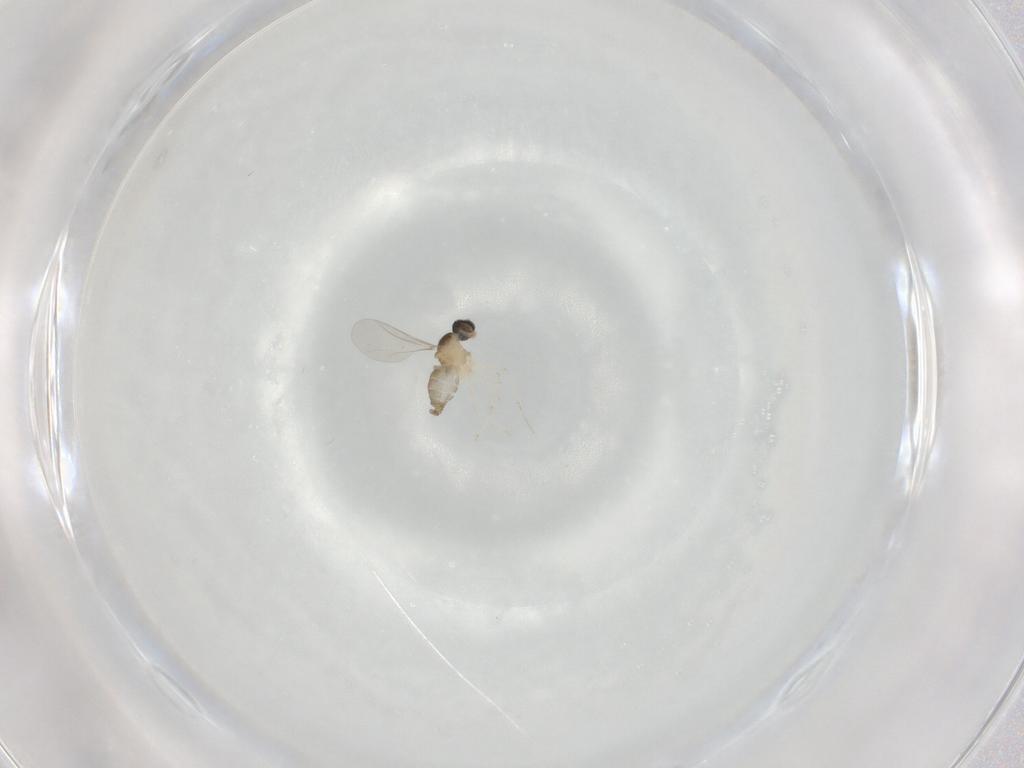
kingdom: Animalia
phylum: Arthropoda
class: Insecta
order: Diptera
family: Cecidomyiidae
